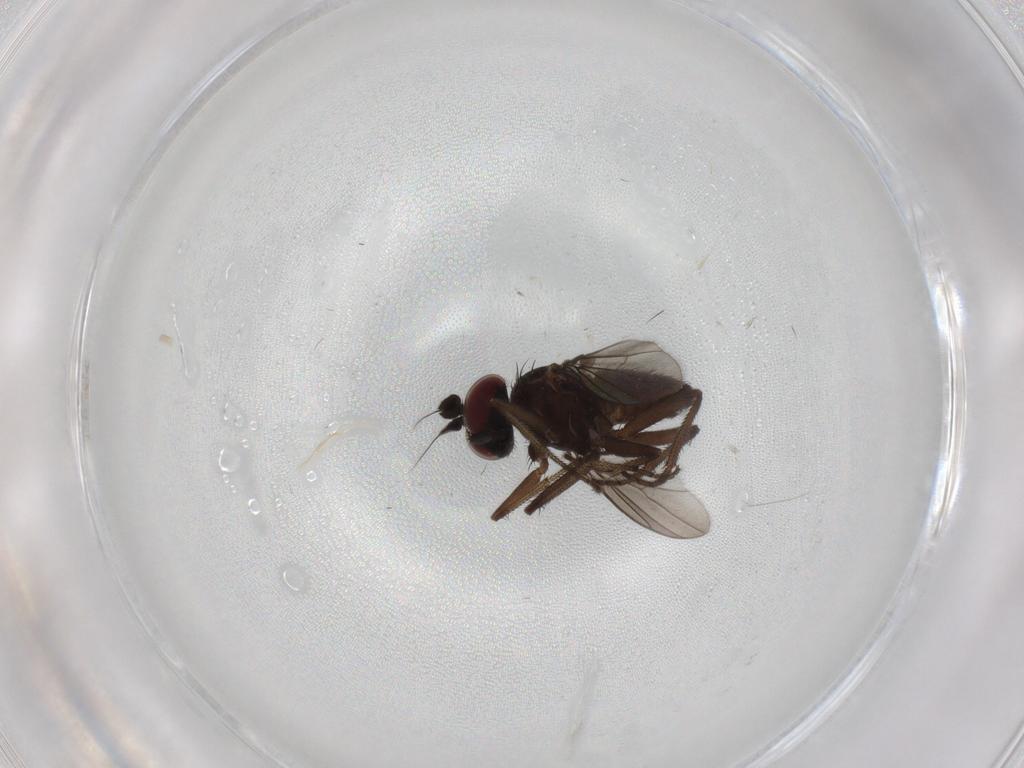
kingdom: Animalia
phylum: Arthropoda
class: Insecta
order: Diptera
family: Dolichopodidae
